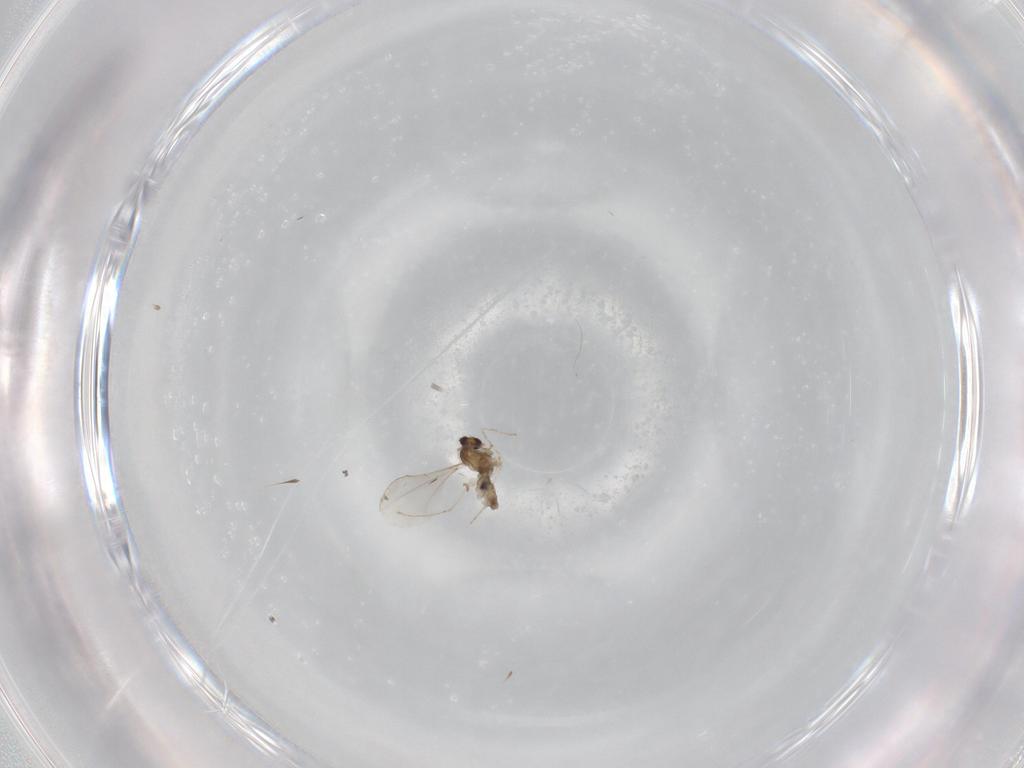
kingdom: Animalia
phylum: Arthropoda
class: Insecta
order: Diptera
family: Cecidomyiidae
